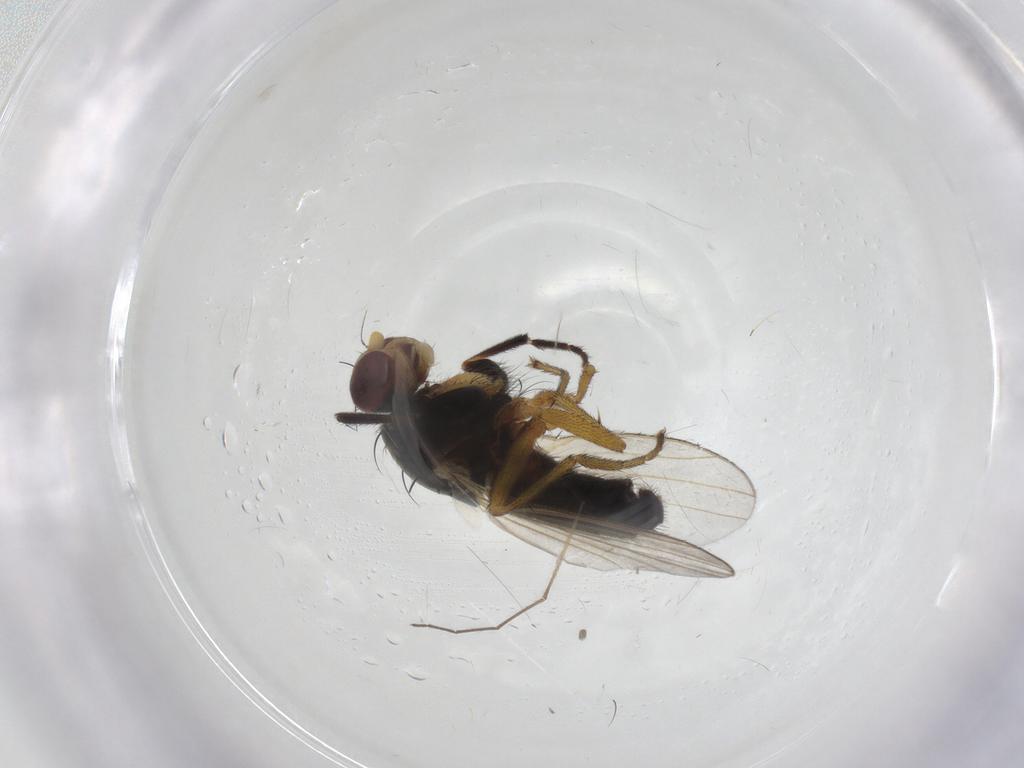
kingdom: Animalia
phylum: Arthropoda
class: Insecta
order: Diptera
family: Heleomyzidae
